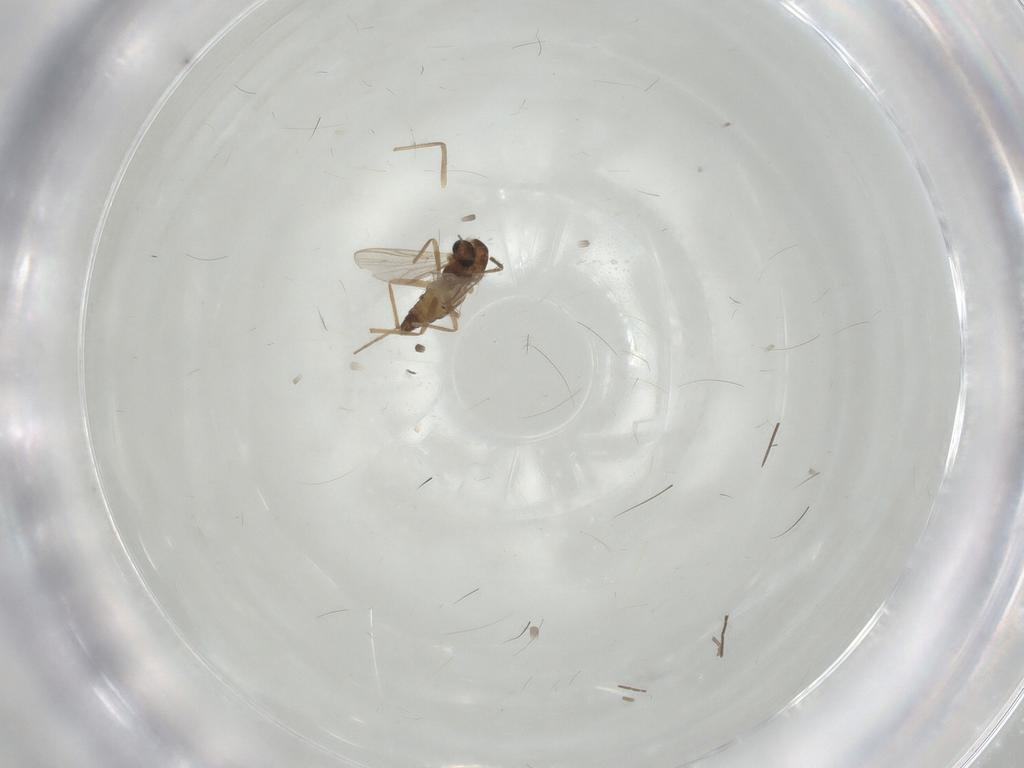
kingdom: Animalia
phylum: Arthropoda
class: Insecta
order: Diptera
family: Chironomidae
